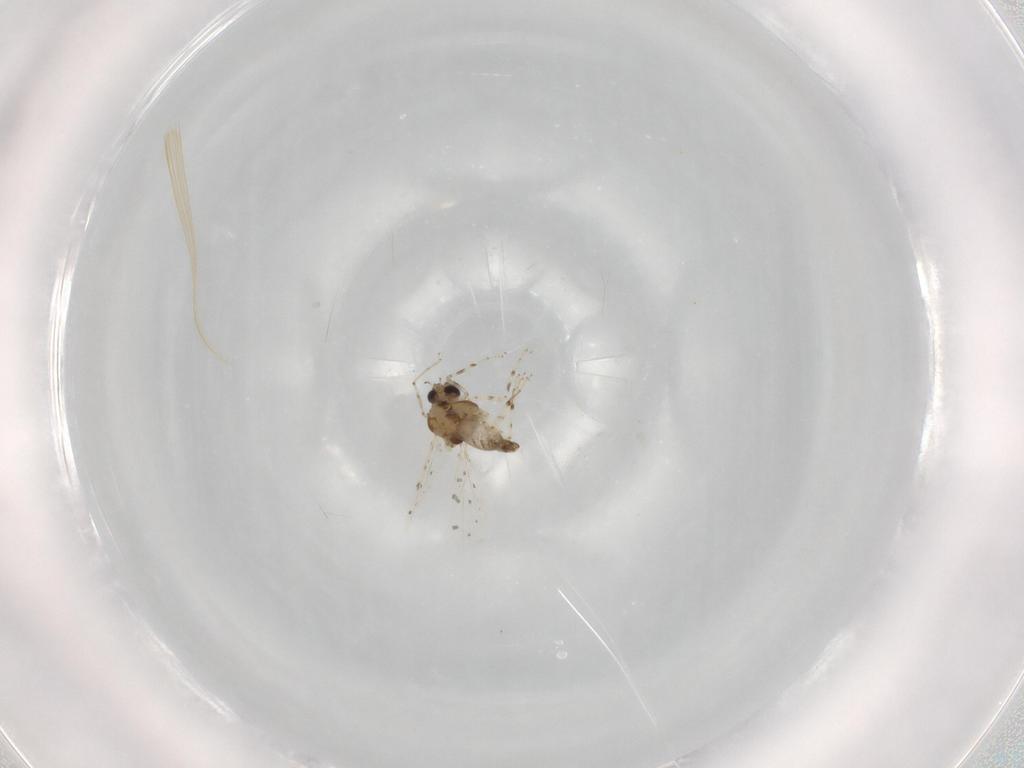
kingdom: Animalia
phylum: Arthropoda
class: Insecta
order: Diptera
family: Ceratopogonidae
